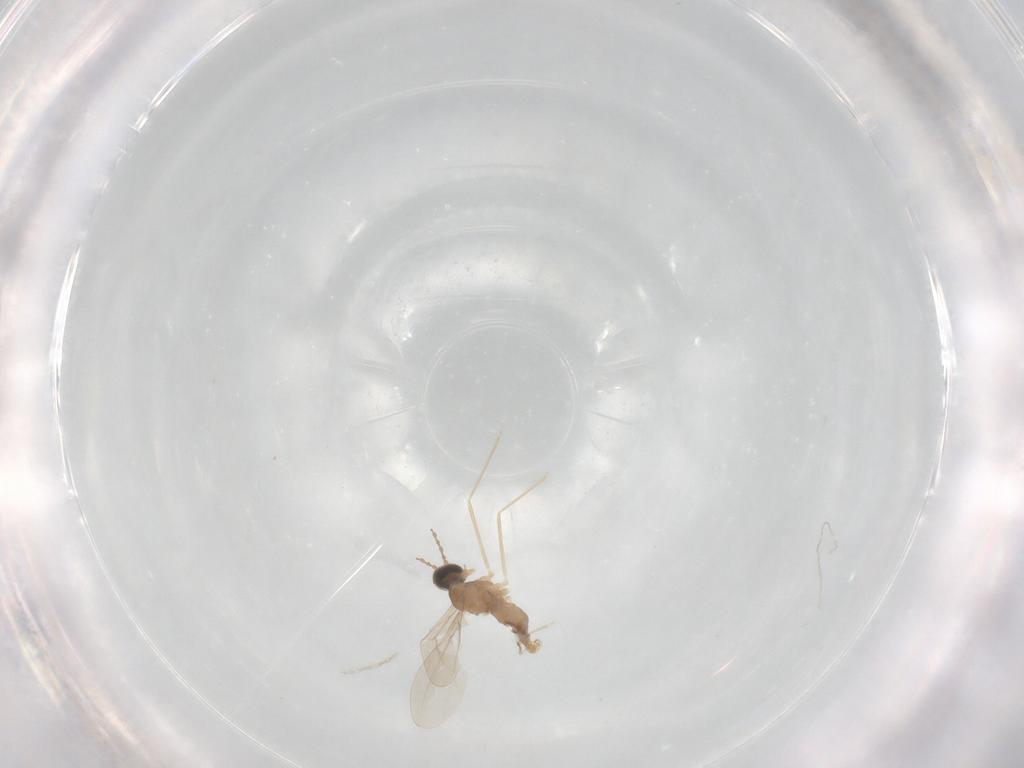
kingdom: Animalia
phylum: Arthropoda
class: Insecta
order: Diptera
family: Cecidomyiidae
